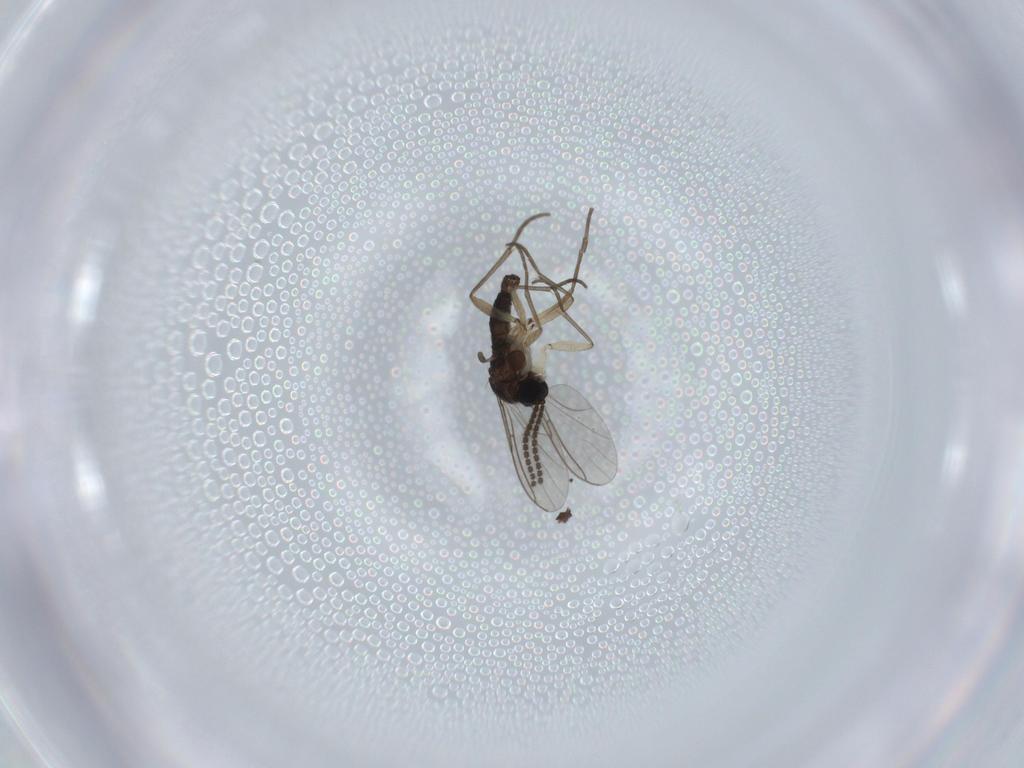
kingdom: Animalia
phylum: Arthropoda
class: Insecta
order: Diptera
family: Sciaridae
